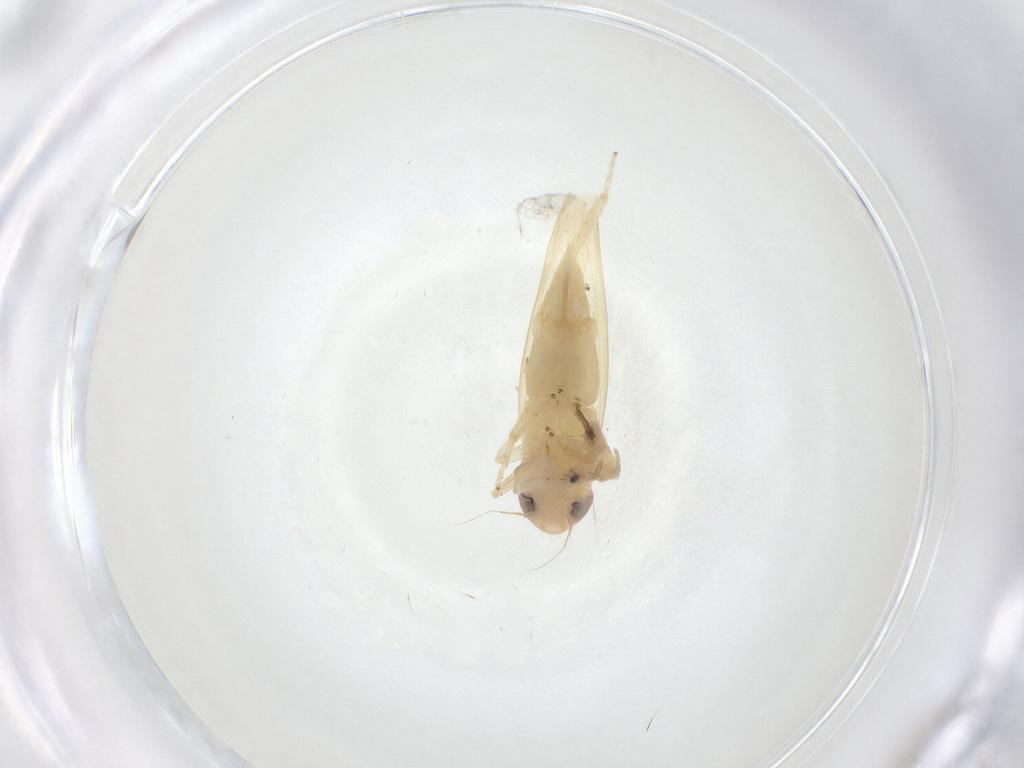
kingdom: Animalia
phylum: Arthropoda
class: Insecta
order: Hemiptera
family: Cicadellidae
